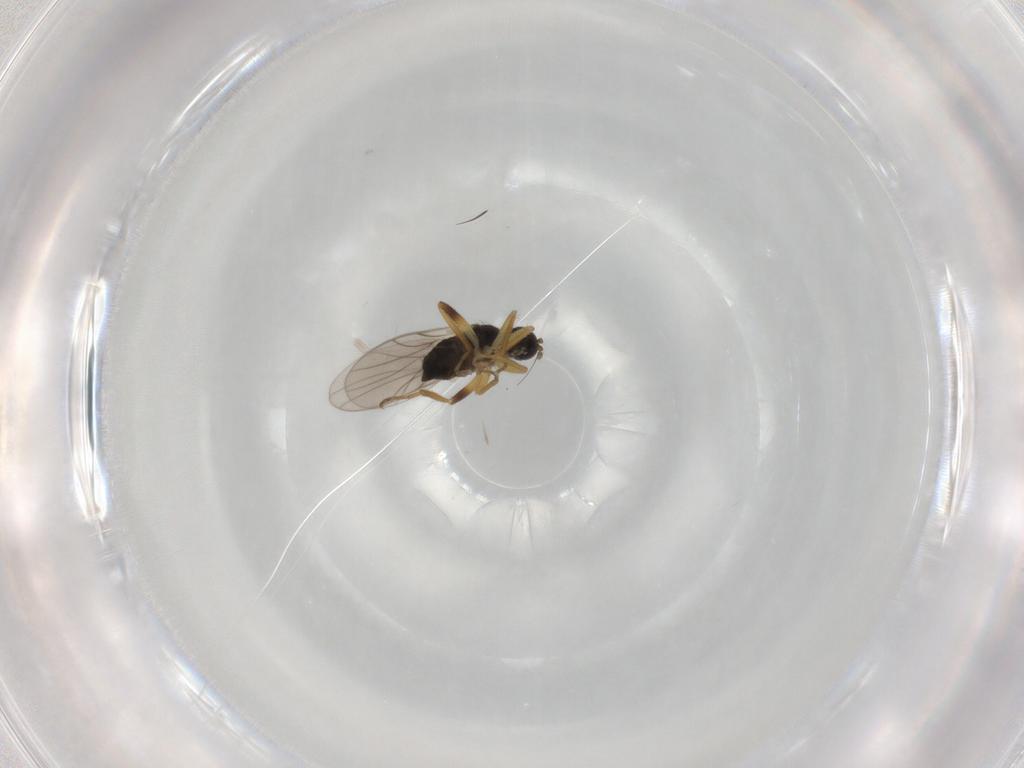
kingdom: Animalia
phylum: Arthropoda
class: Insecta
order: Diptera
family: Hybotidae
